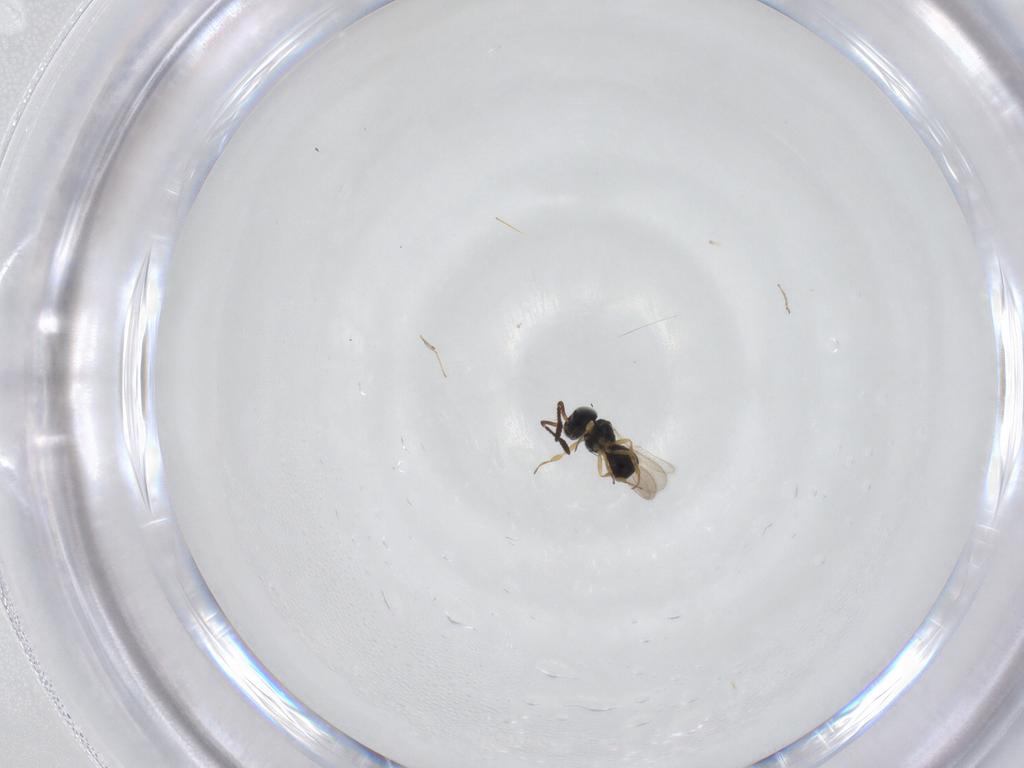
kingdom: Animalia
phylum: Arthropoda
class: Insecta
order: Hymenoptera
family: Scelionidae
